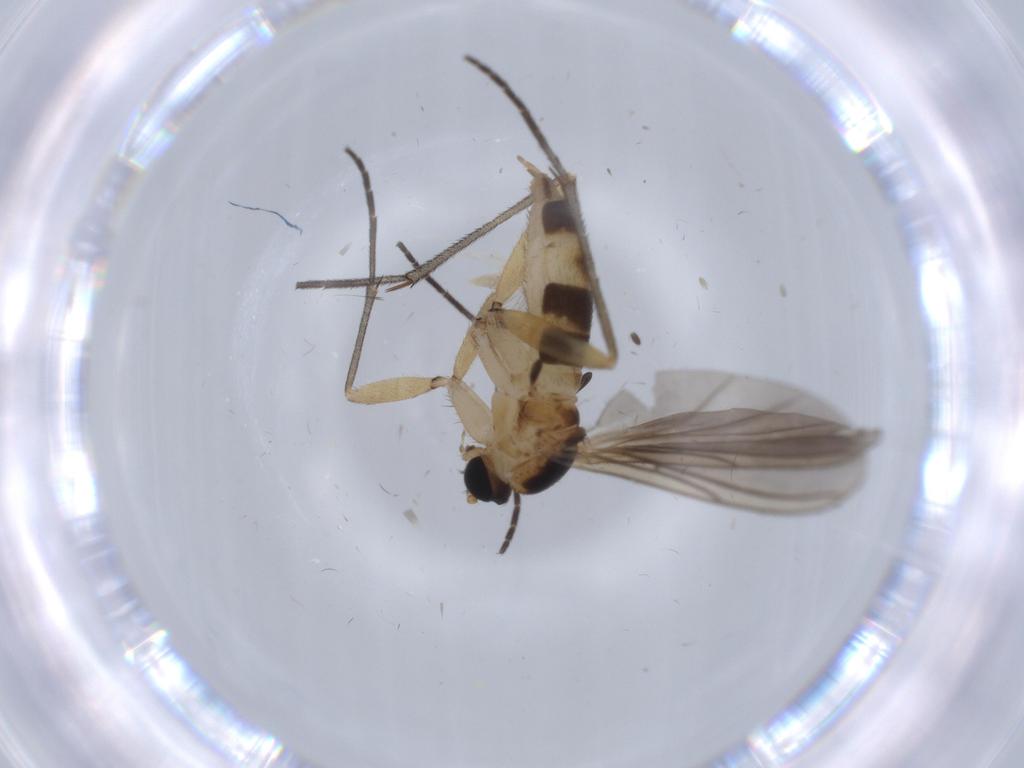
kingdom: Animalia
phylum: Arthropoda
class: Insecta
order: Diptera
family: Sciaridae
